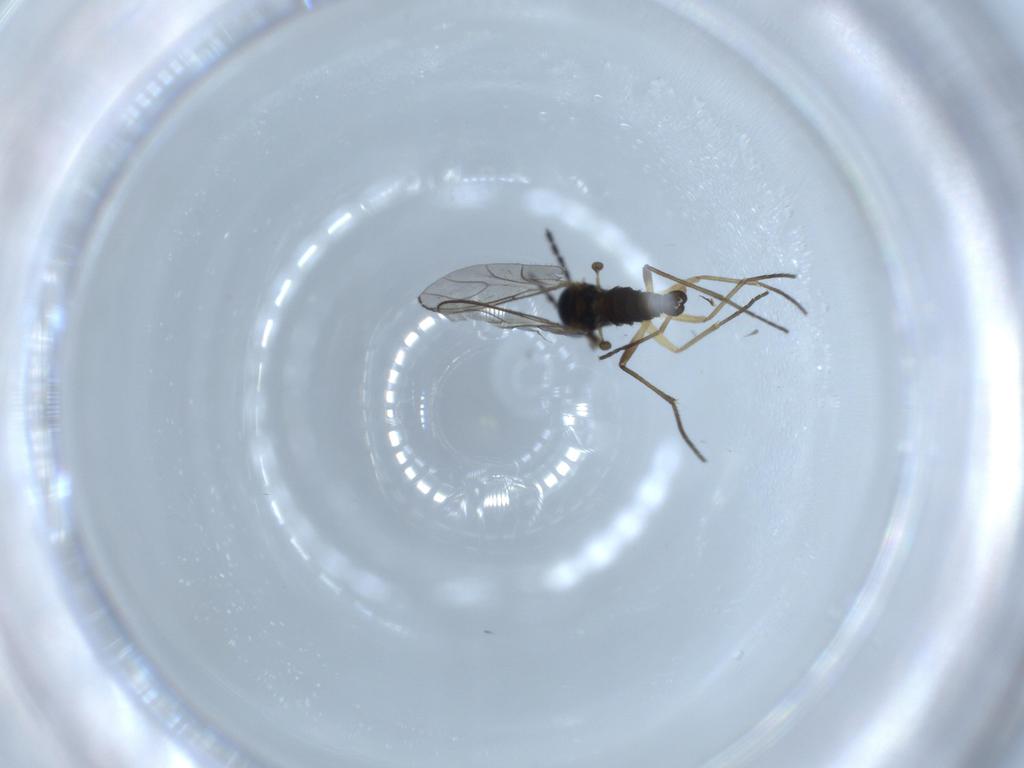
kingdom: Animalia
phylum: Arthropoda
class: Insecta
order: Diptera
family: Sciaridae
